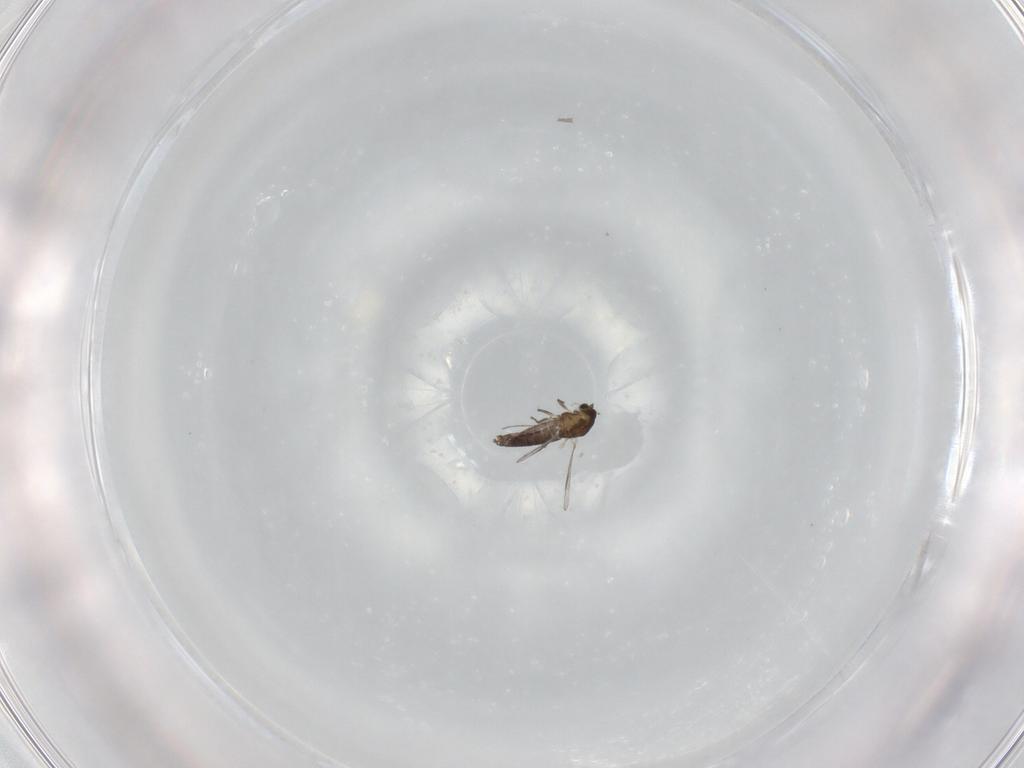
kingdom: Animalia
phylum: Arthropoda
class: Insecta
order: Diptera
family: Chironomidae
